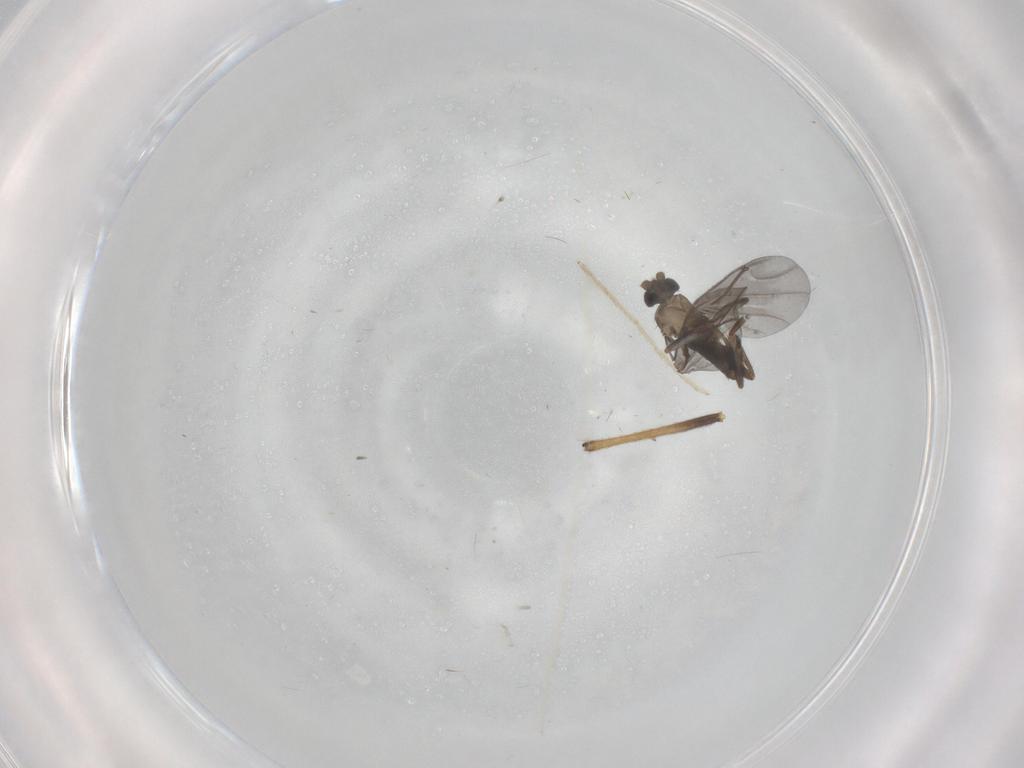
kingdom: Animalia
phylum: Arthropoda
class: Insecta
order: Diptera
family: Phoridae
